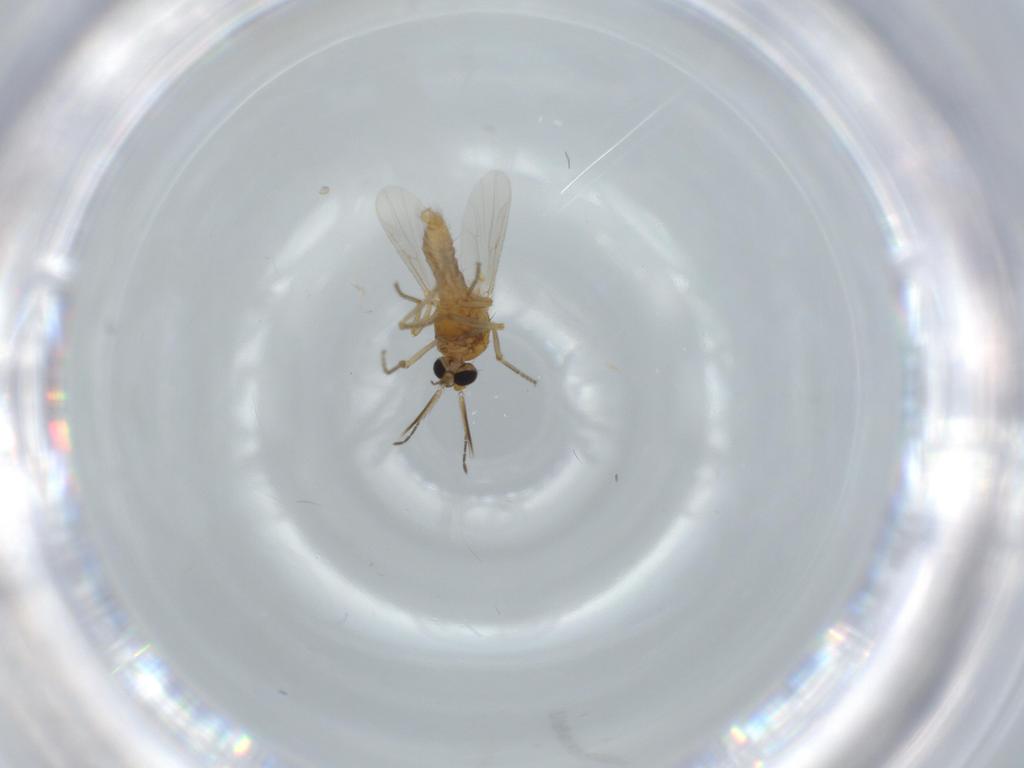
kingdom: Animalia
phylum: Arthropoda
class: Insecta
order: Diptera
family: Ceratopogonidae
